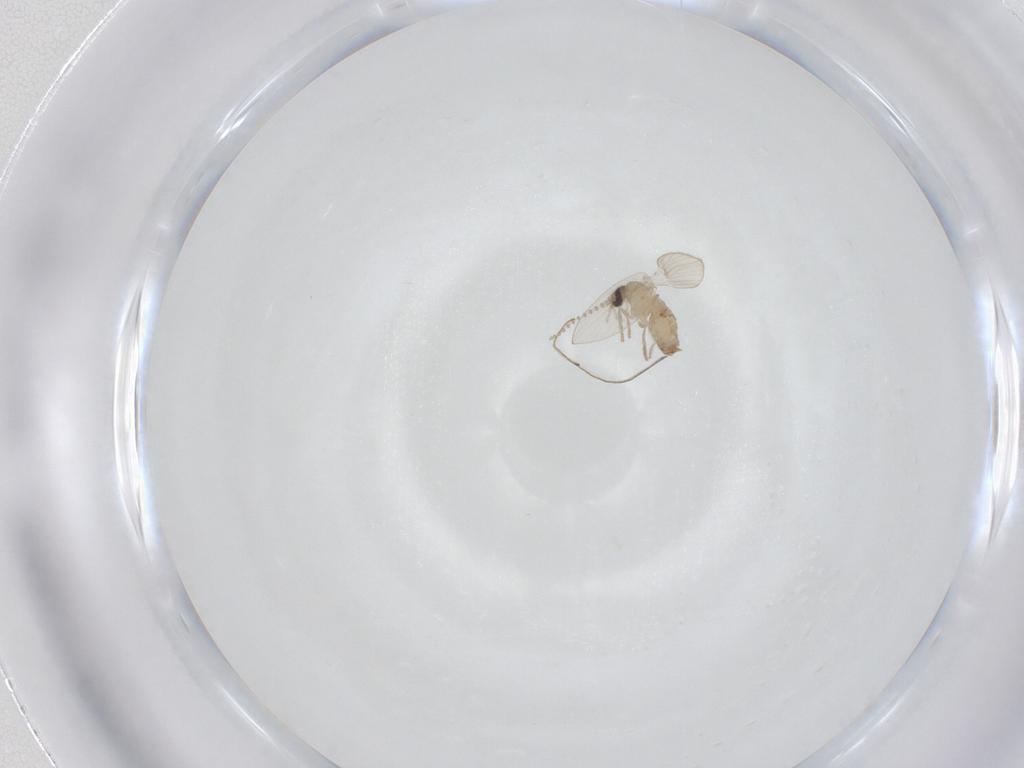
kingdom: Animalia
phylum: Arthropoda
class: Insecta
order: Diptera
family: Psychodidae
